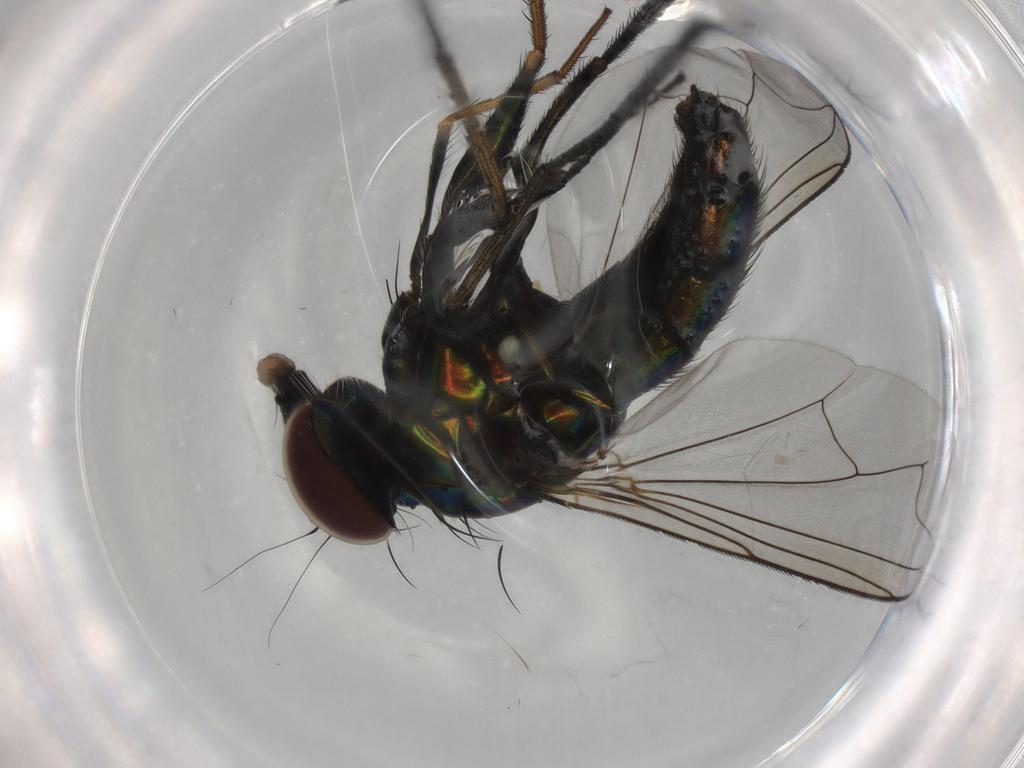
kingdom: Animalia
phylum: Arthropoda
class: Insecta
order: Diptera
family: Dolichopodidae
